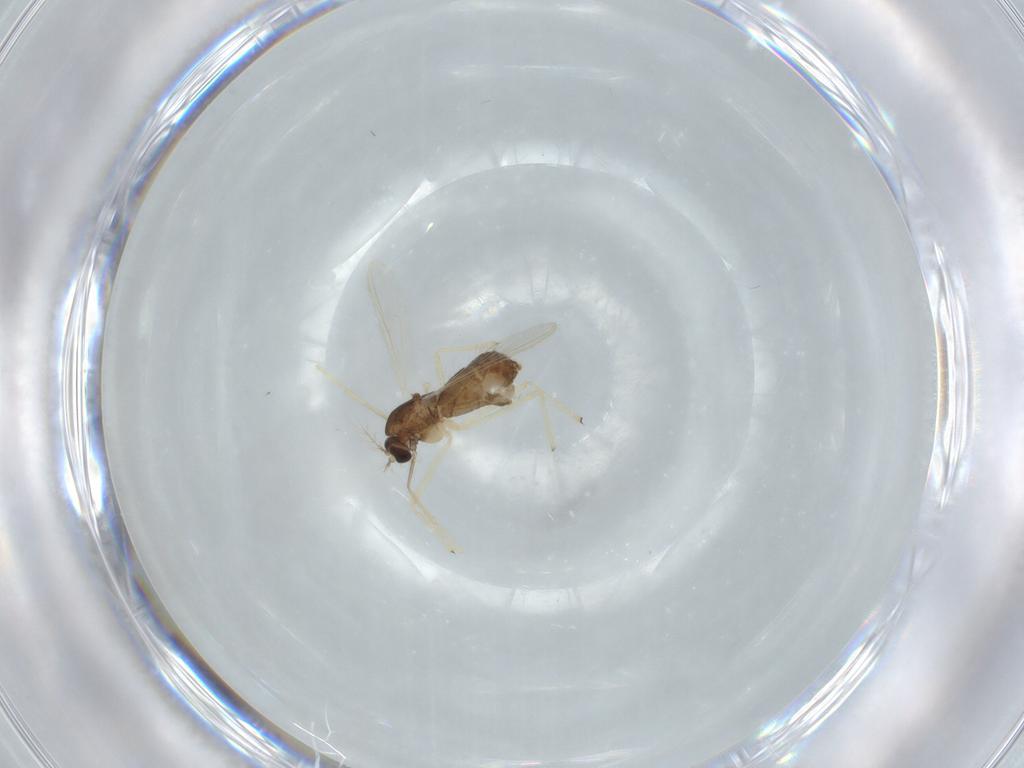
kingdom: Animalia
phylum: Arthropoda
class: Insecta
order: Diptera
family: Chironomidae
